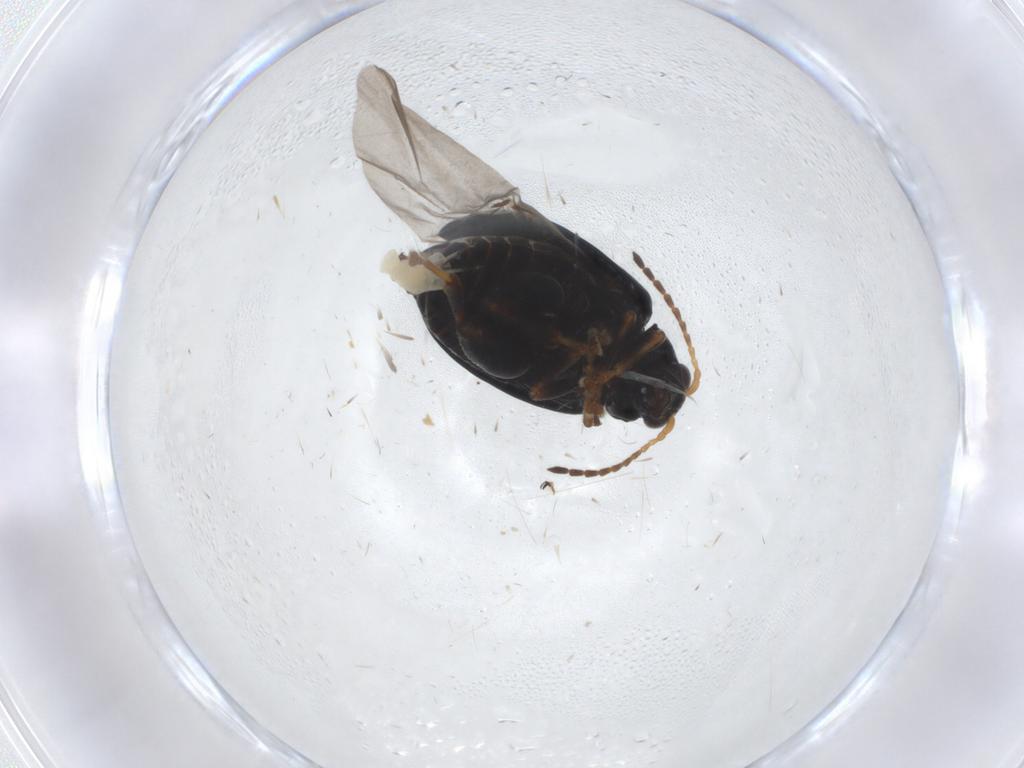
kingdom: Animalia
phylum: Arthropoda
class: Insecta
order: Coleoptera
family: Chrysomelidae
